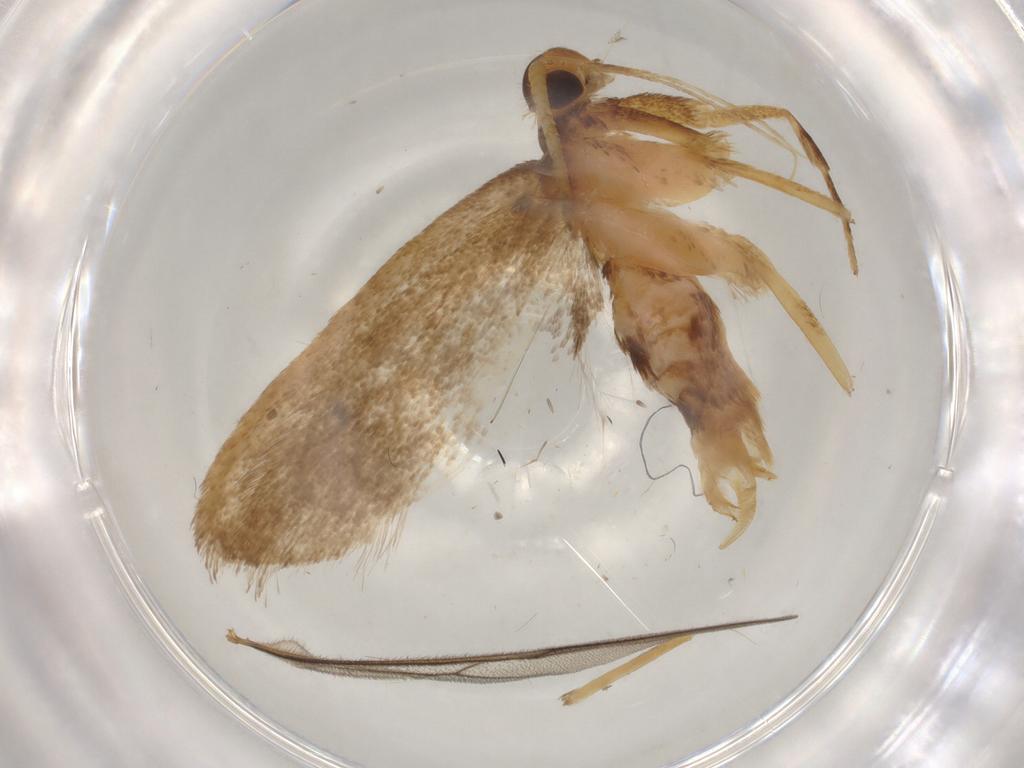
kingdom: Animalia
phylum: Arthropoda
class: Insecta
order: Lepidoptera
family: Lecithoceridae
